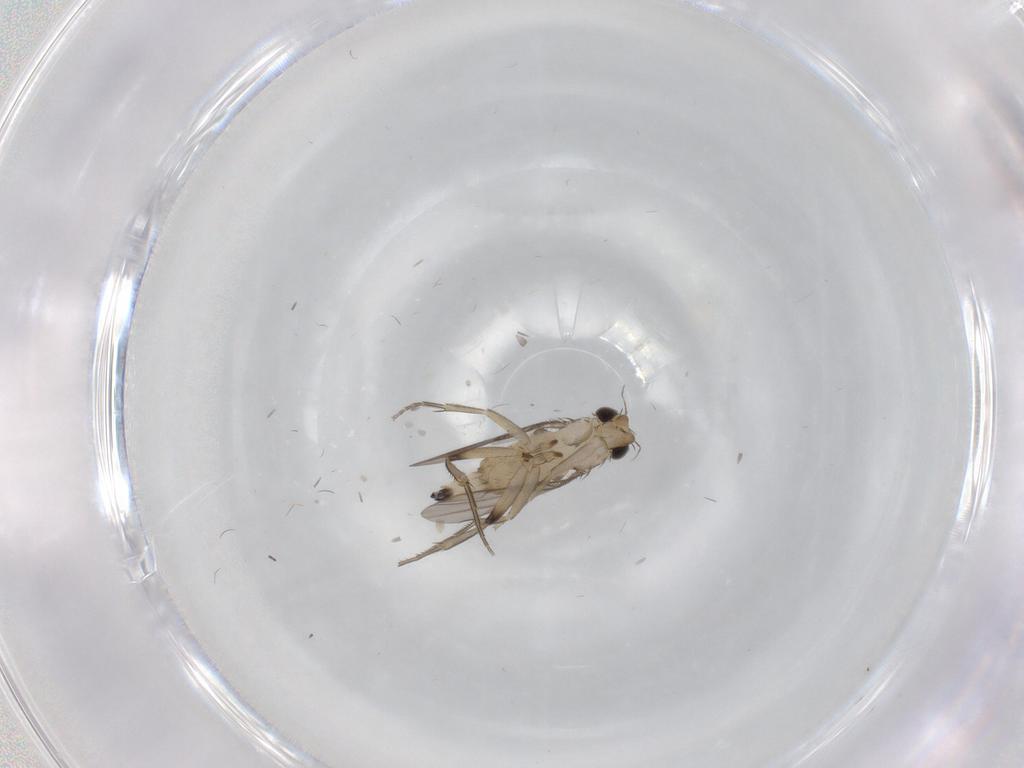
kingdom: Animalia
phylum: Arthropoda
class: Insecta
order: Diptera
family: Phoridae
